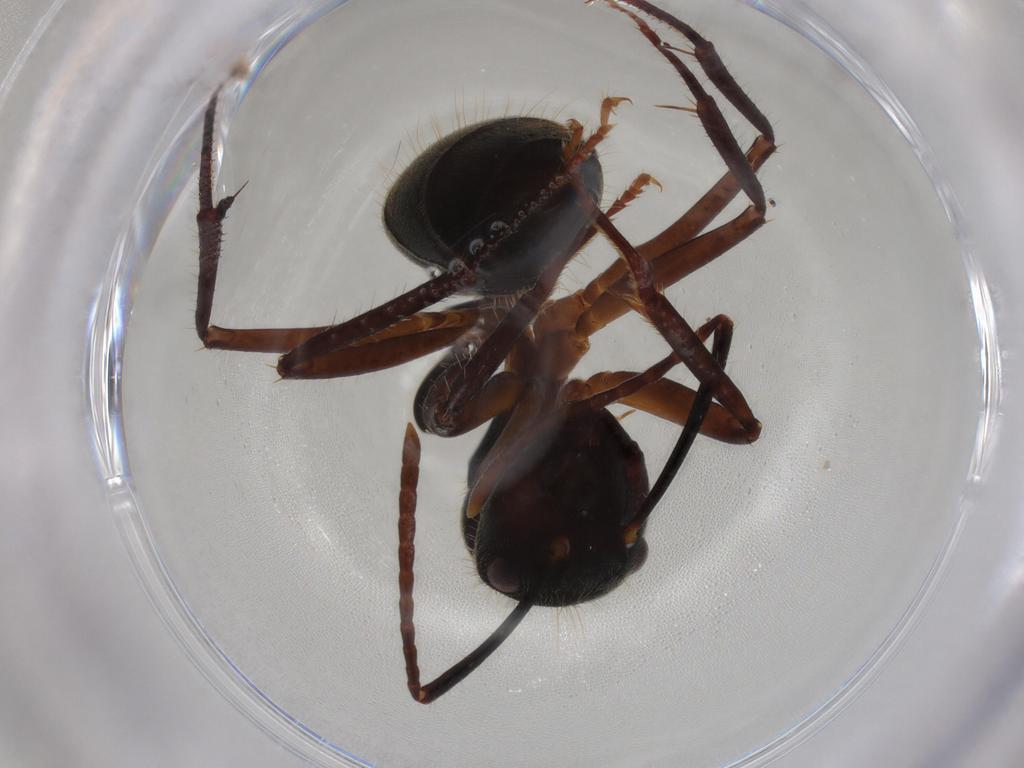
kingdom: Animalia
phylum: Arthropoda
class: Insecta
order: Hymenoptera
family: Formicidae
